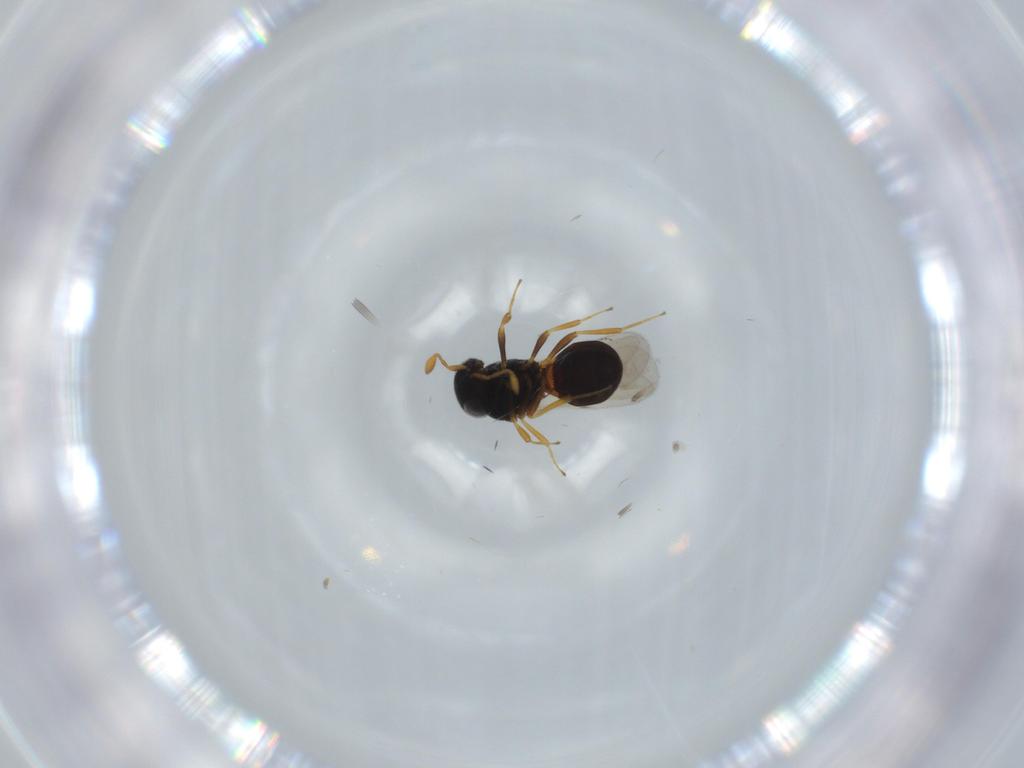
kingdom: Animalia
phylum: Arthropoda
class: Insecta
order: Hymenoptera
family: Scelionidae
